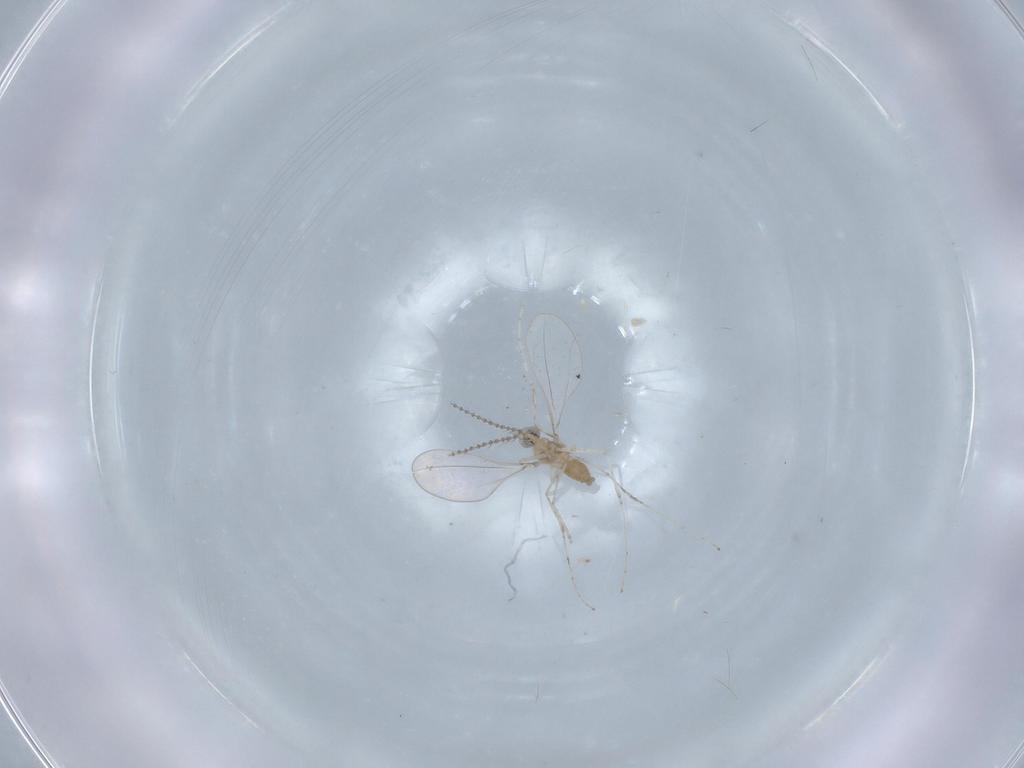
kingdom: Animalia
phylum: Arthropoda
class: Insecta
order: Diptera
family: Cecidomyiidae
